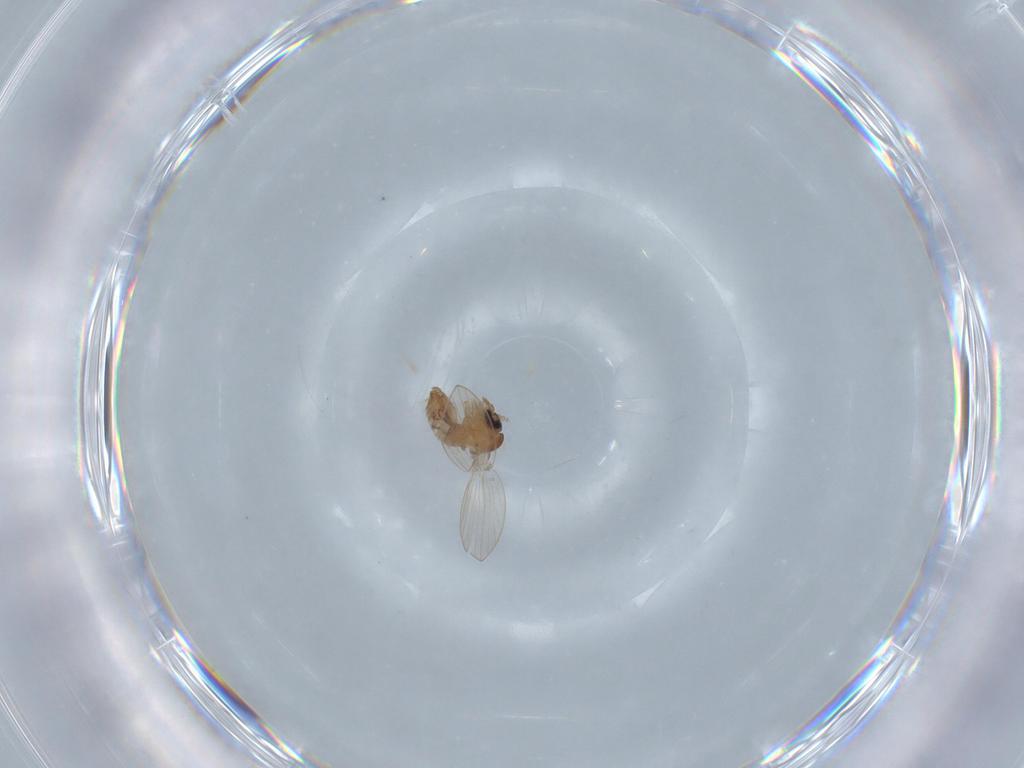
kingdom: Animalia
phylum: Arthropoda
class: Insecta
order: Diptera
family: Psychodidae
